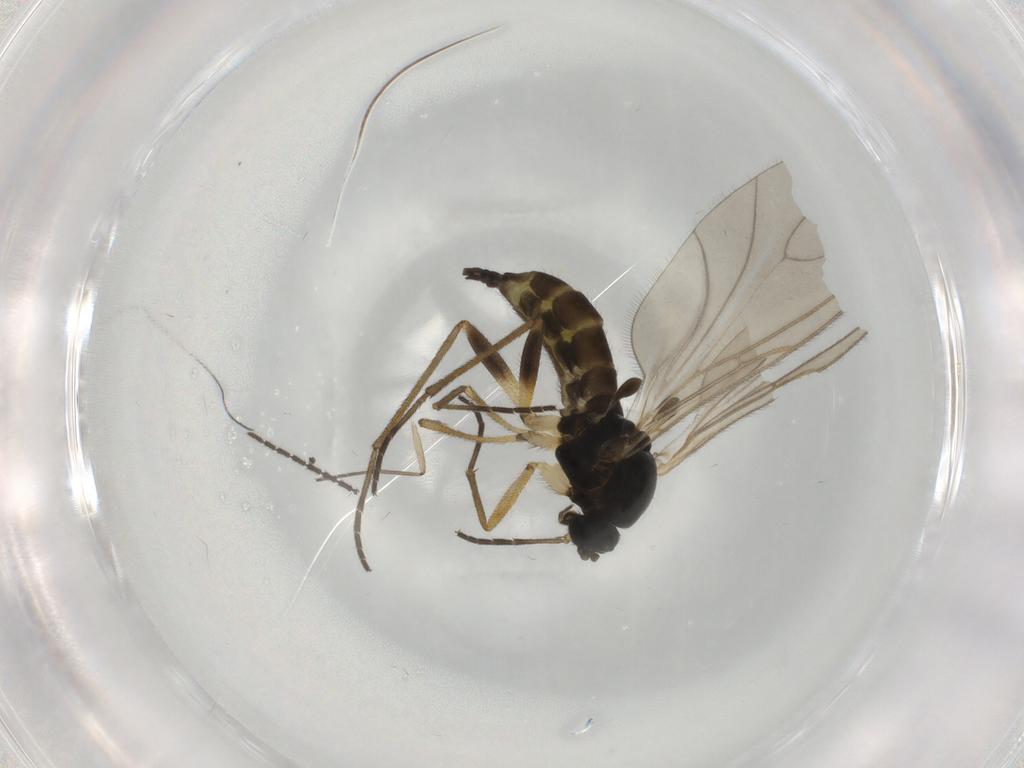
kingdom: Animalia
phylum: Arthropoda
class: Insecta
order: Diptera
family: Sciaridae
